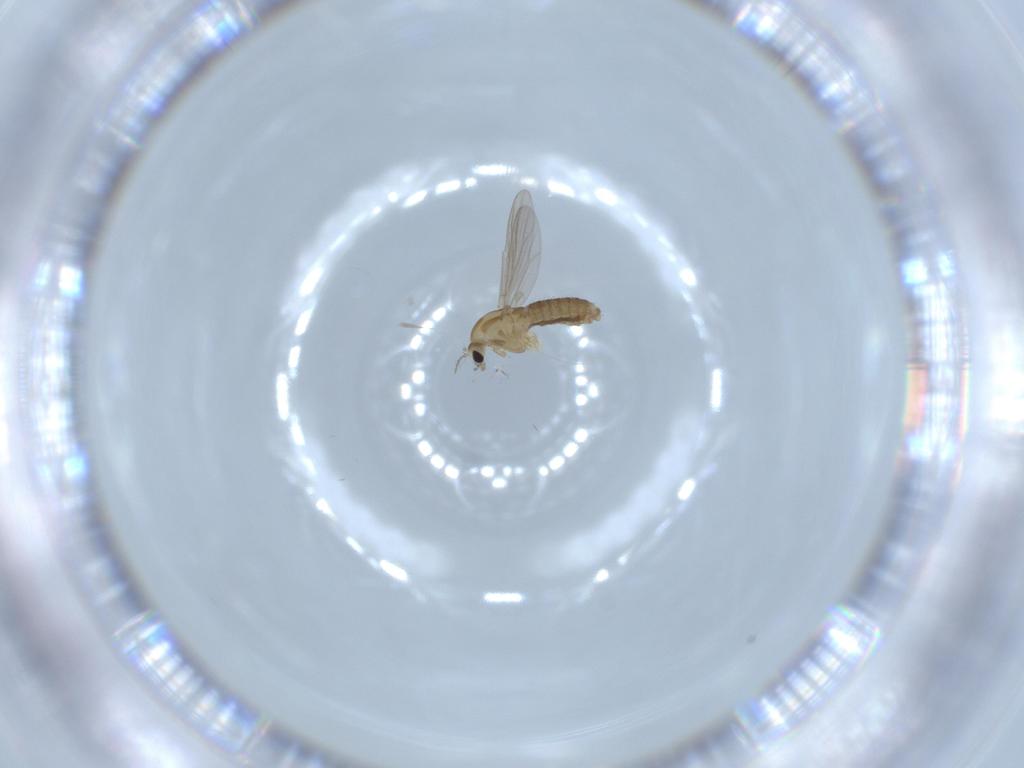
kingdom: Animalia
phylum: Arthropoda
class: Insecta
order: Diptera
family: Chironomidae
